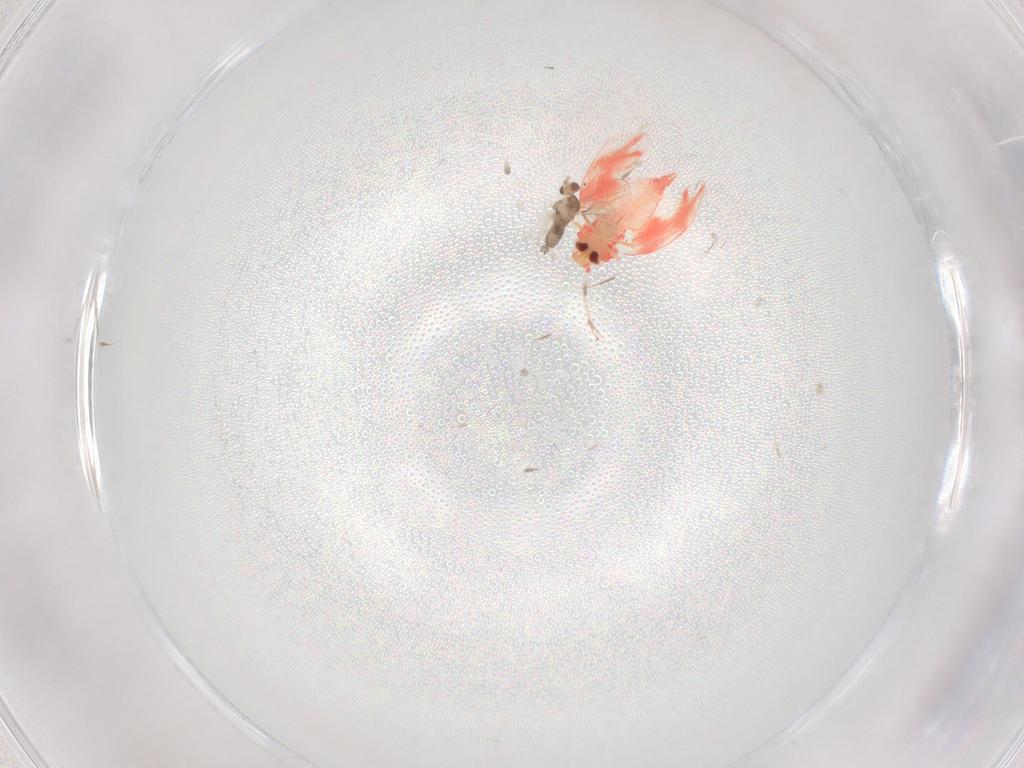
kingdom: Animalia
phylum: Arthropoda
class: Insecta
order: Diptera
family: Cecidomyiidae
